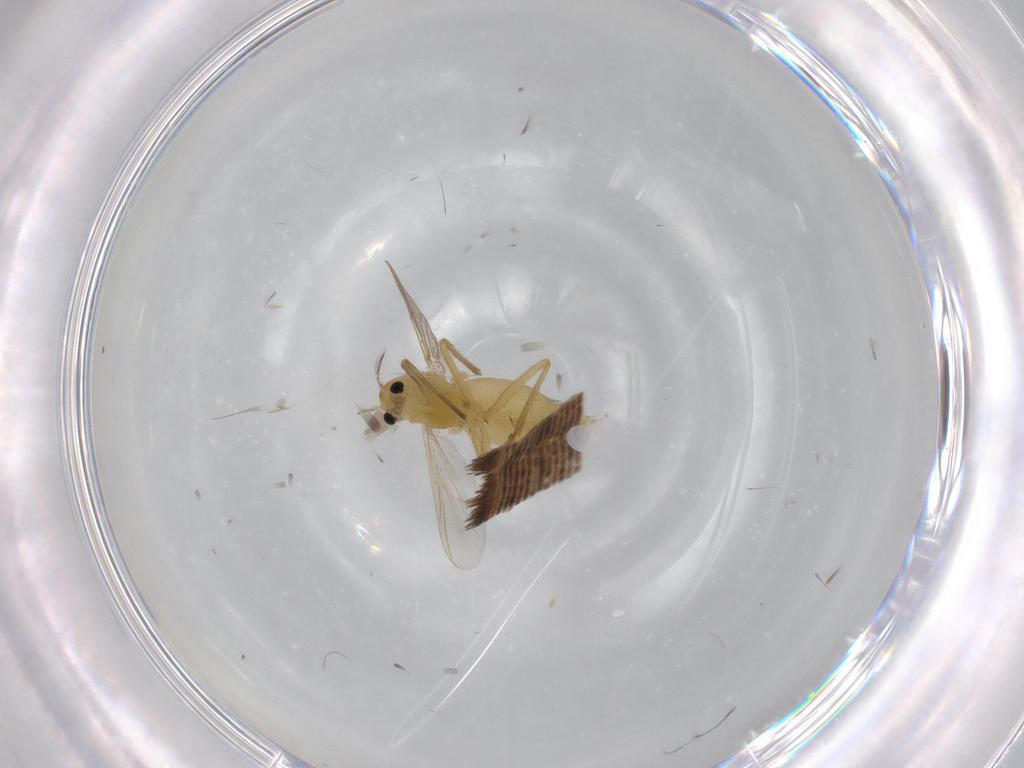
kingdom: Animalia
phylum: Arthropoda
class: Insecta
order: Diptera
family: Chironomidae
